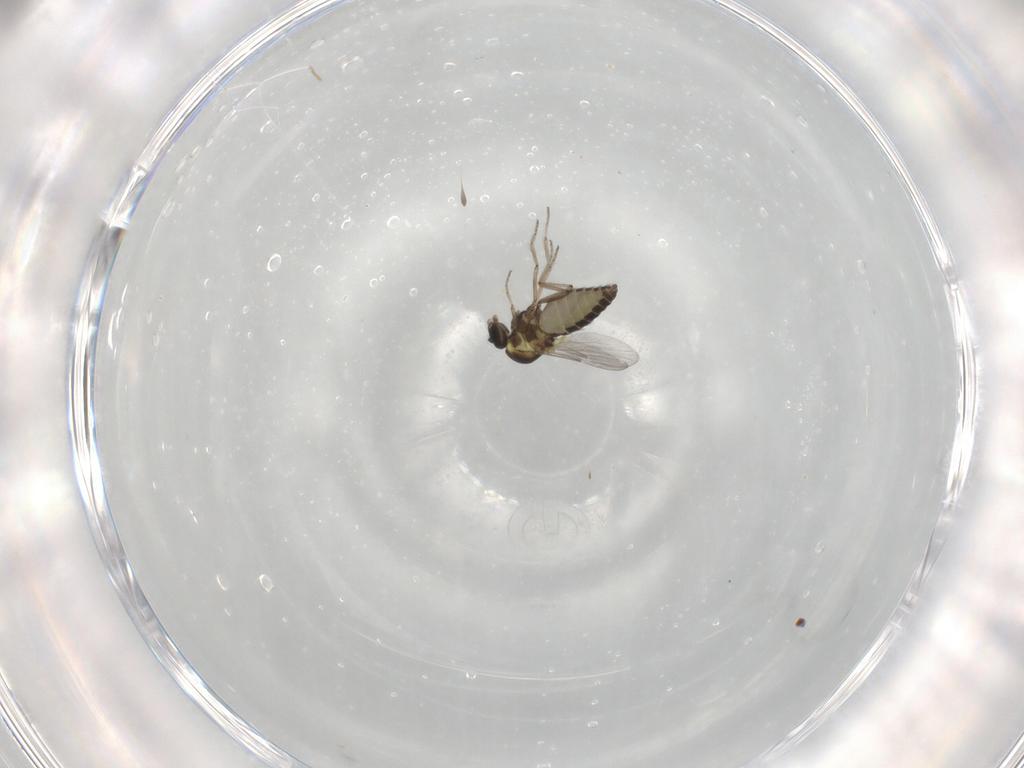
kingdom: Animalia
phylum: Arthropoda
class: Insecta
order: Diptera
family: Ceratopogonidae
